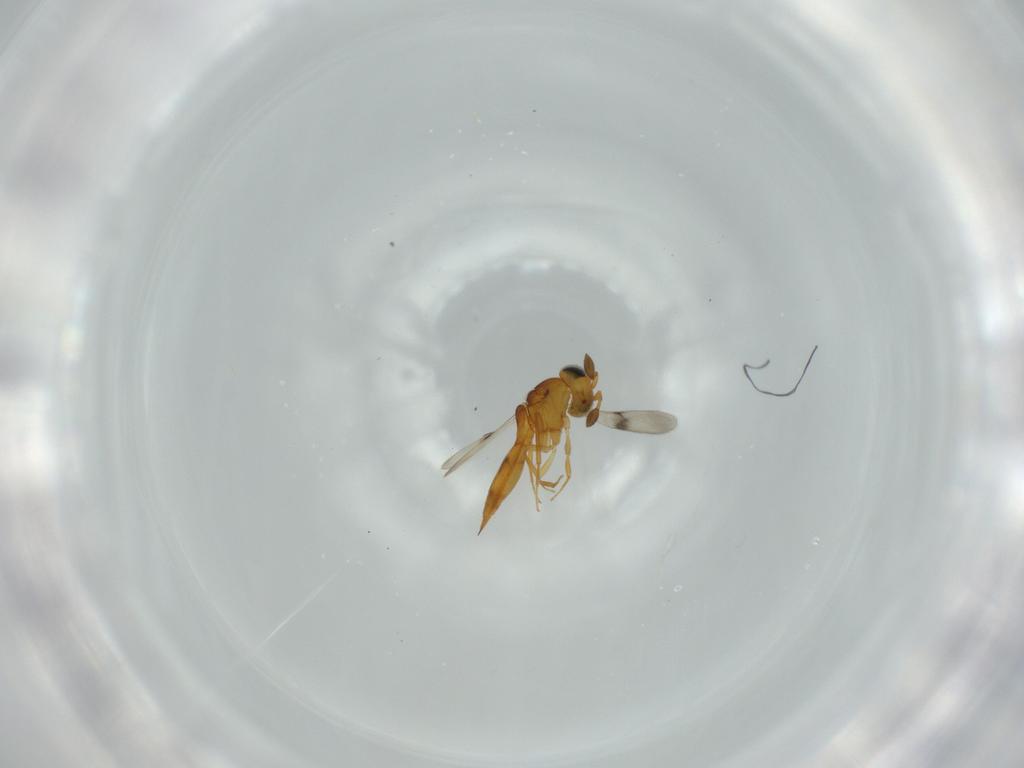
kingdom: Animalia
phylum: Arthropoda
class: Insecta
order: Hymenoptera
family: Scelionidae
